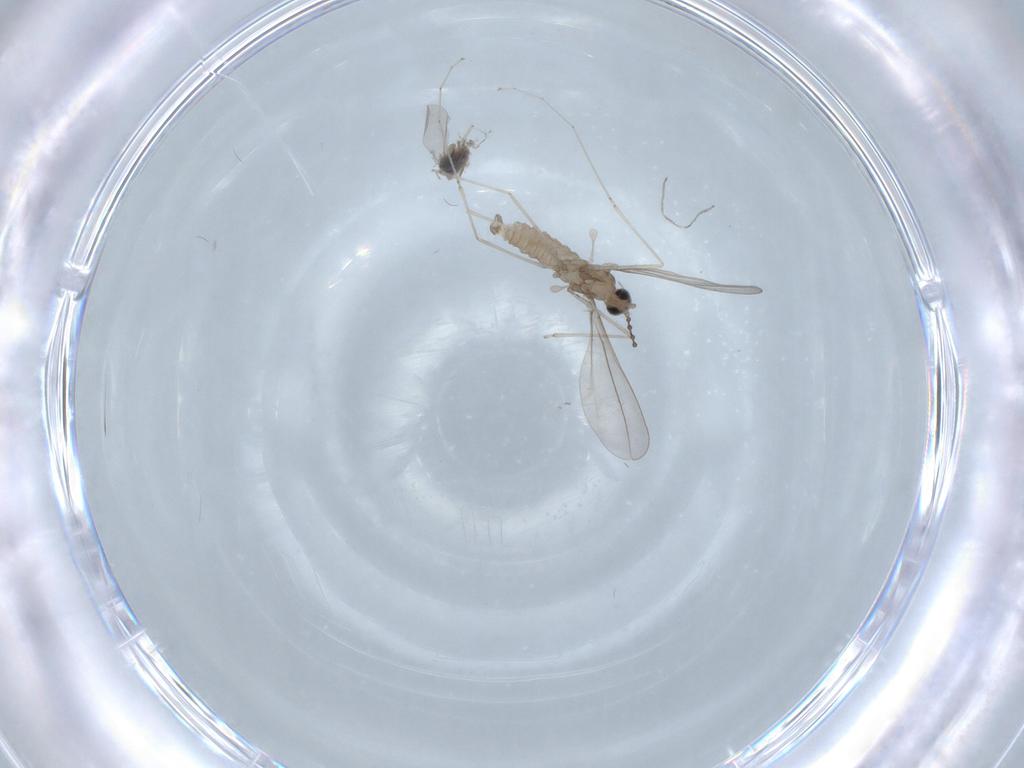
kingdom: Animalia
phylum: Arthropoda
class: Insecta
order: Diptera
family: Cecidomyiidae
